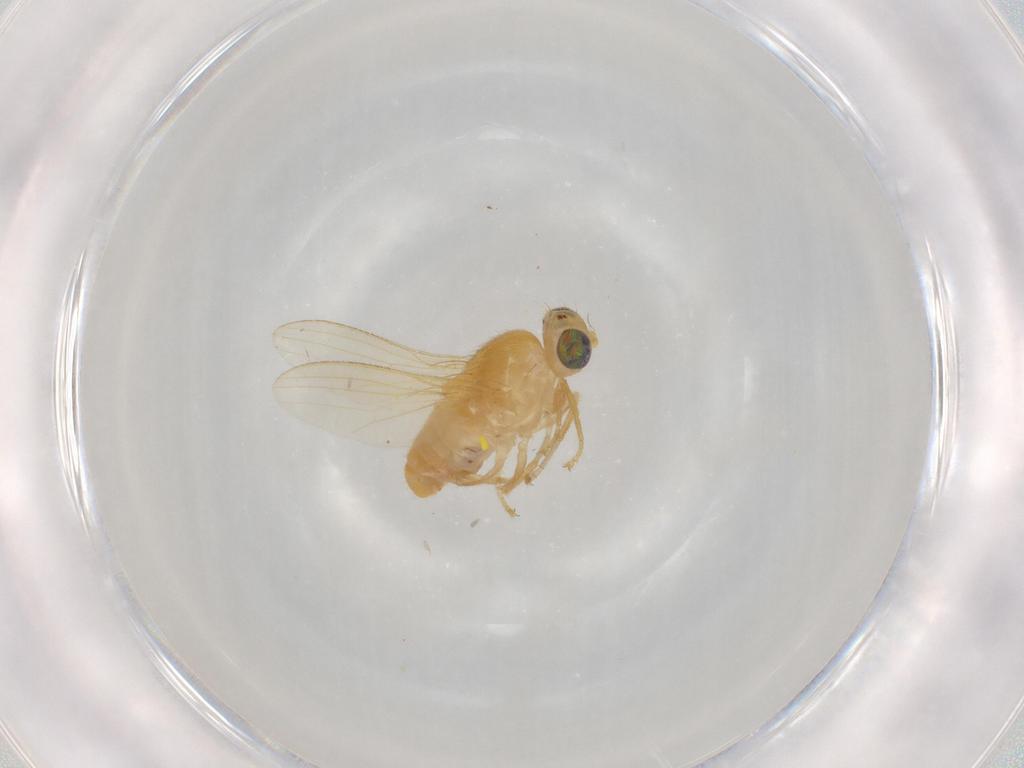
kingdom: Animalia
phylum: Arthropoda
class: Insecta
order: Diptera
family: Chyromyidae
